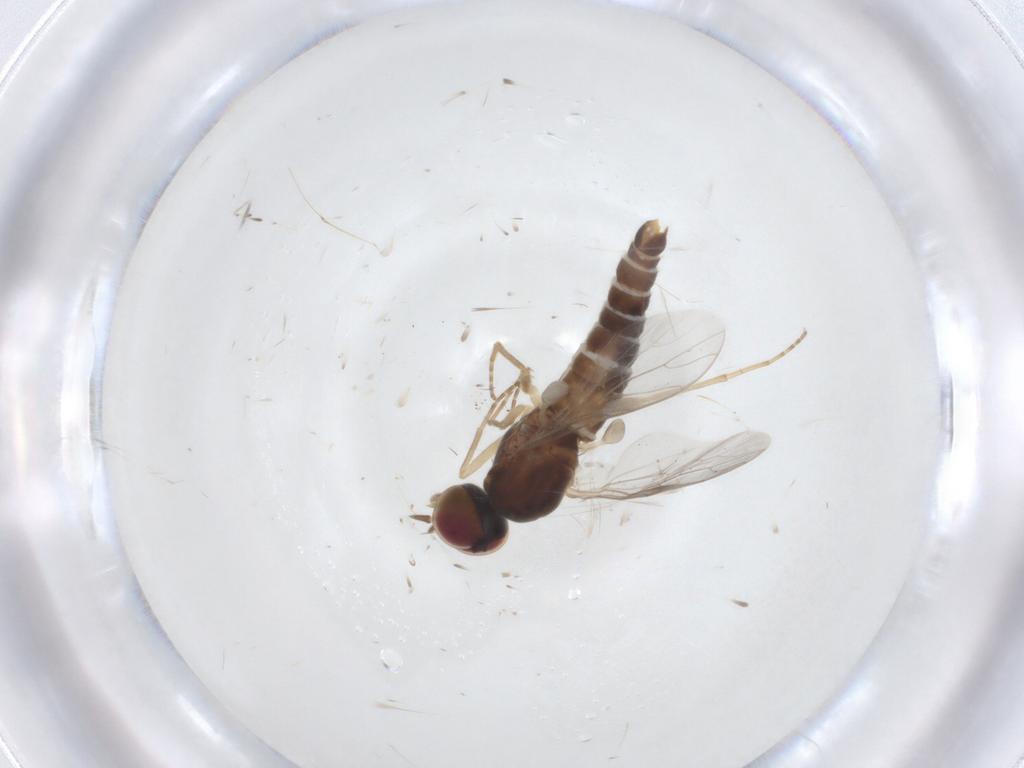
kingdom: Animalia
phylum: Arthropoda
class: Insecta
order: Diptera
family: Scenopinidae
